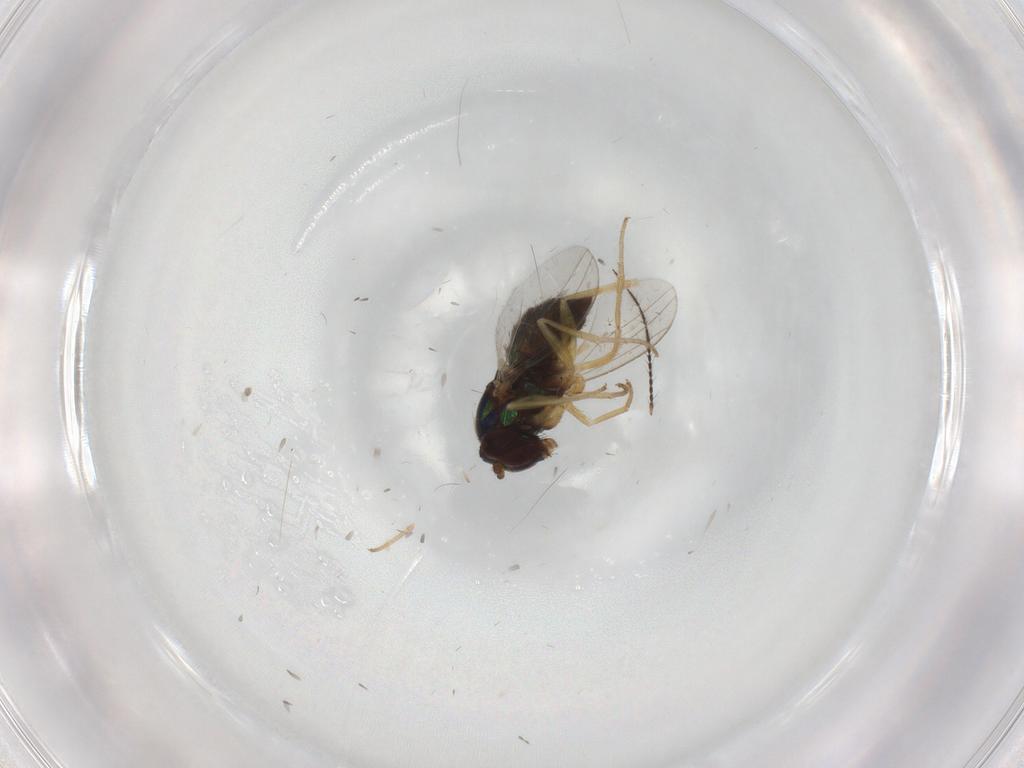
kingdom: Animalia
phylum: Arthropoda
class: Insecta
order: Diptera
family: Dolichopodidae
